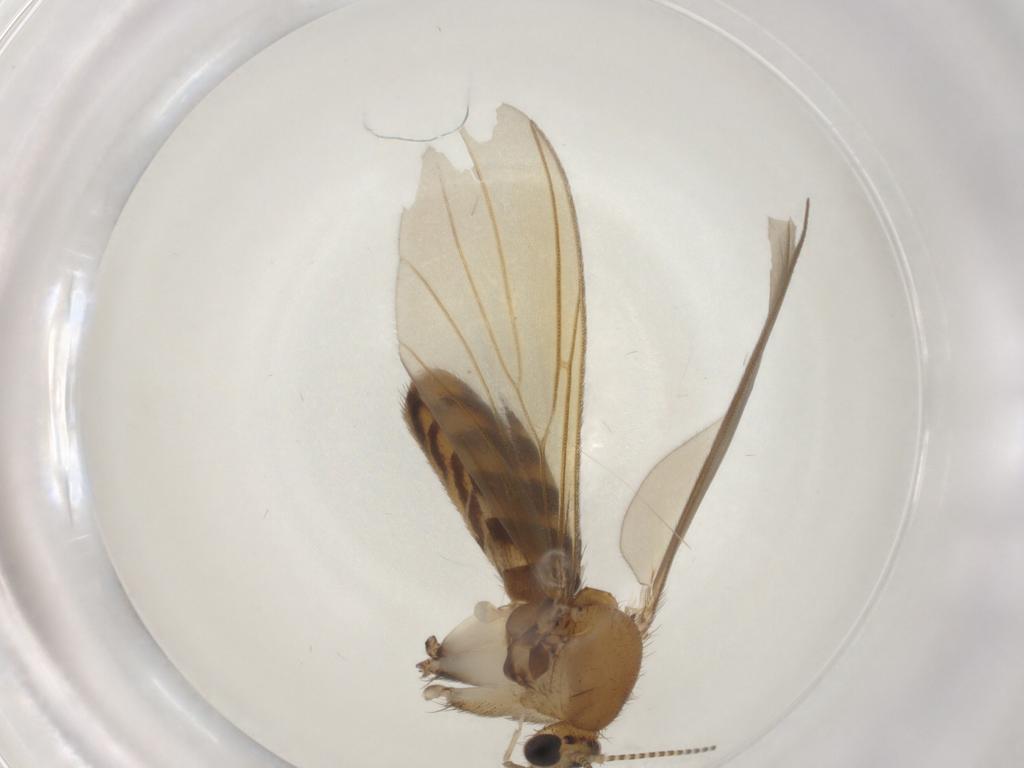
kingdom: Animalia
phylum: Arthropoda
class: Insecta
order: Diptera
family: Mycetophilidae
